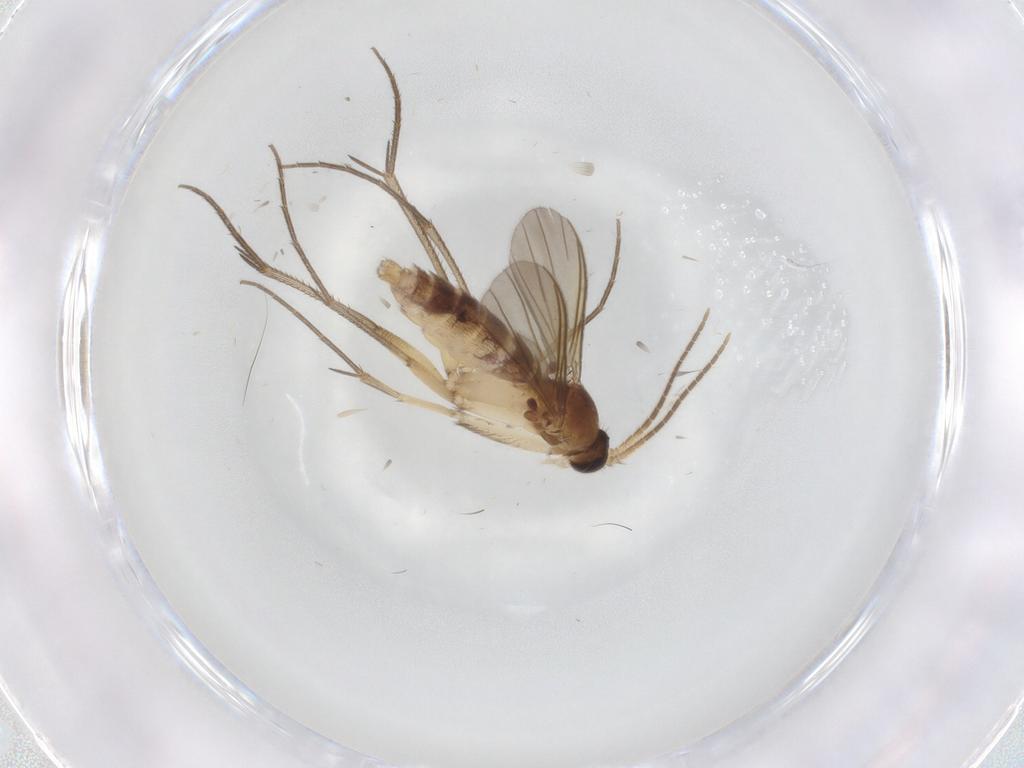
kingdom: Animalia
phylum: Arthropoda
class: Insecta
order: Diptera
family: Mycetophilidae
